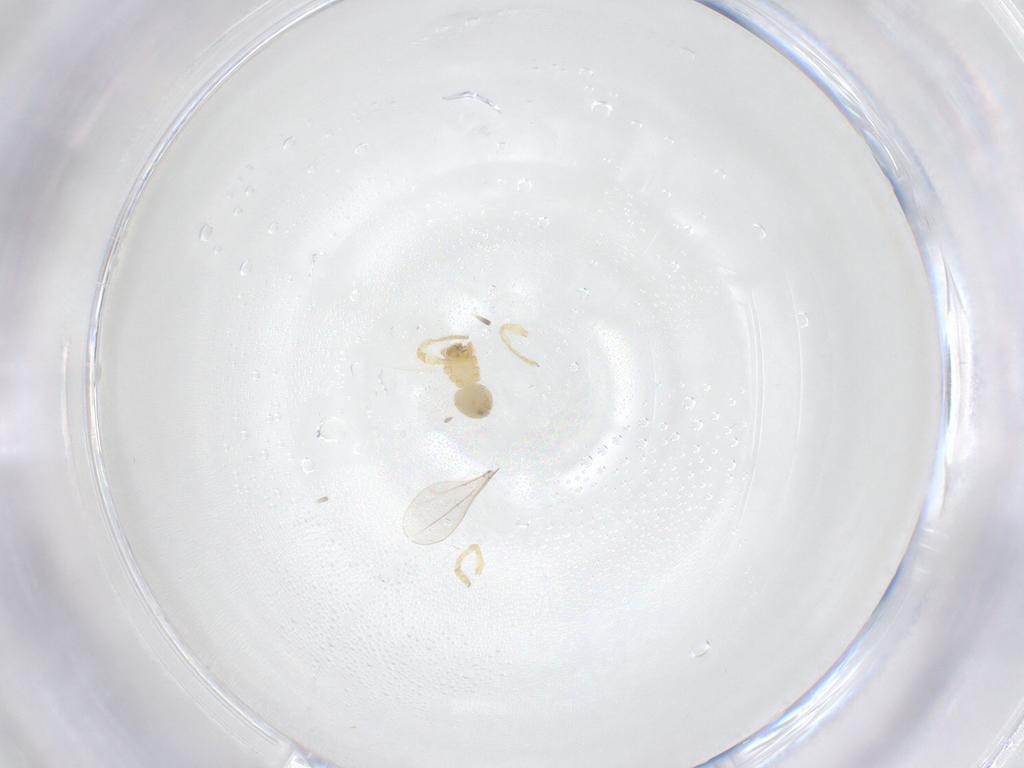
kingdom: Animalia
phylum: Arthropoda
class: Arachnida
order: Araneae
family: Oonopidae
